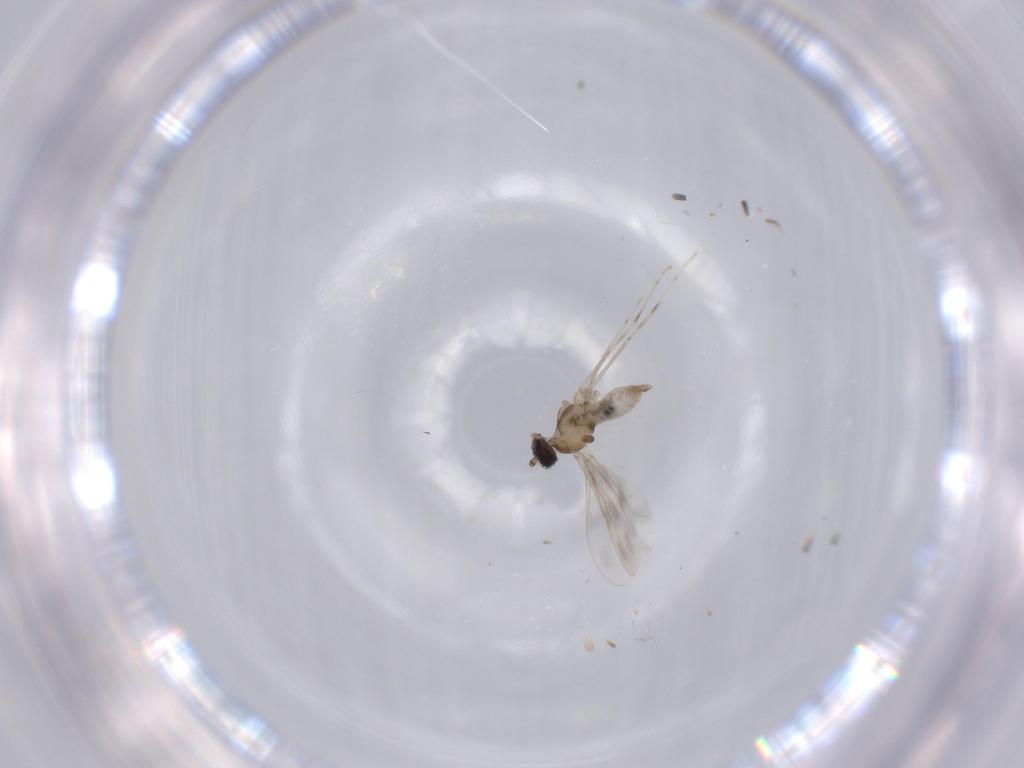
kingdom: Animalia
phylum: Arthropoda
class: Insecta
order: Diptera
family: Cecidomyiidae
